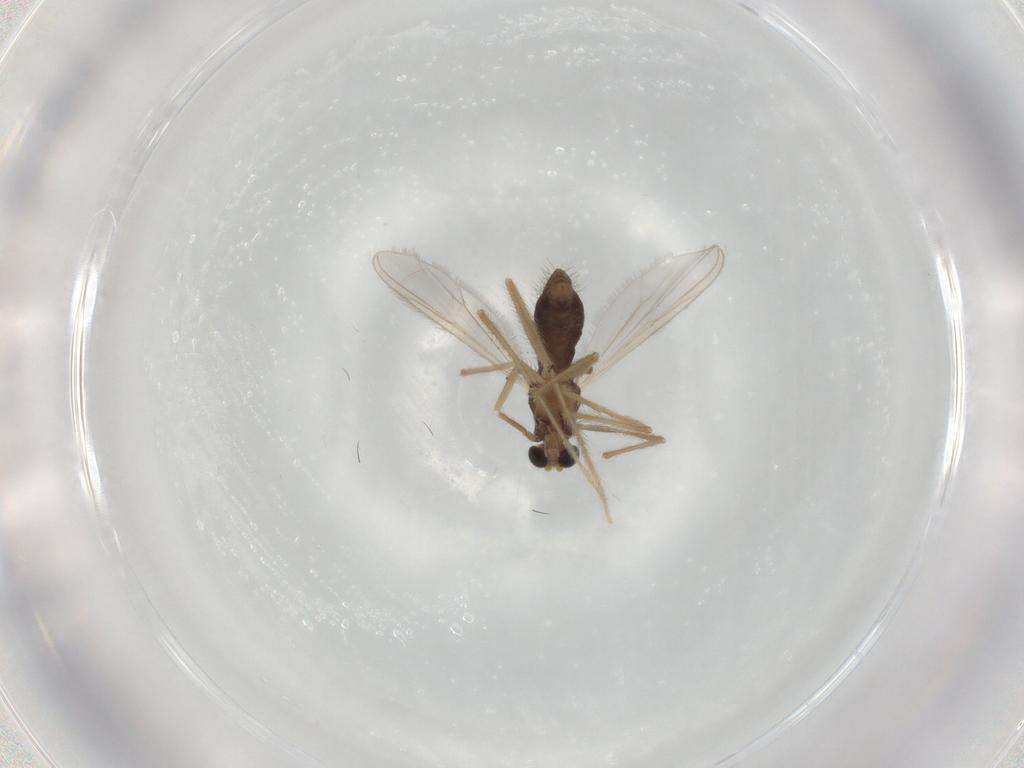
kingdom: Animalia
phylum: Arthropoda
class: Insecta
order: Diptera
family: Chironomidae
